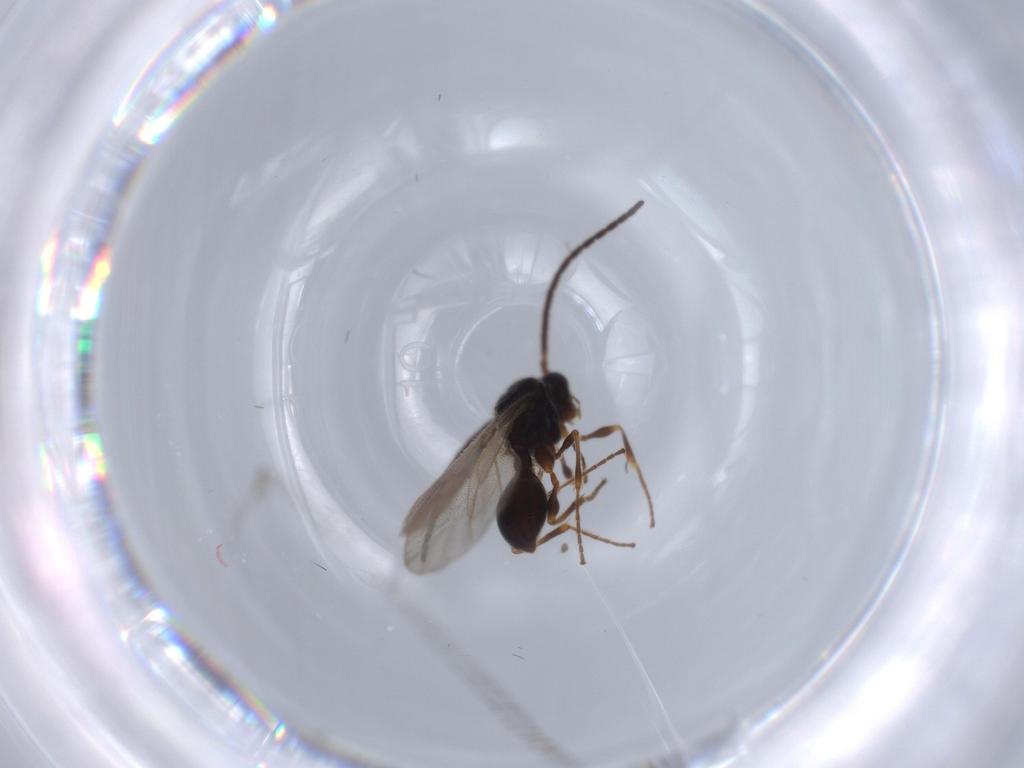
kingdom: Animalia
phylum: Arthropoda
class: Insecta
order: Hymenoptera
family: Diapriidae
